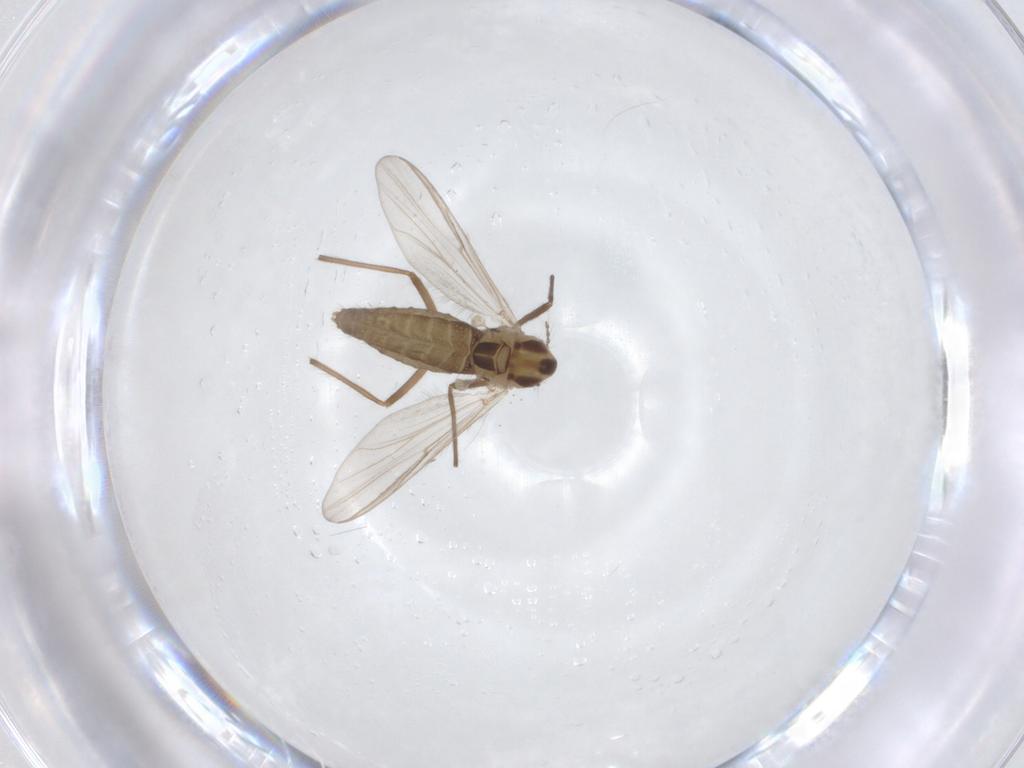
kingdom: Animalia
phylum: Arthropoda
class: Insecta
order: Diptera
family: Chironomidae
